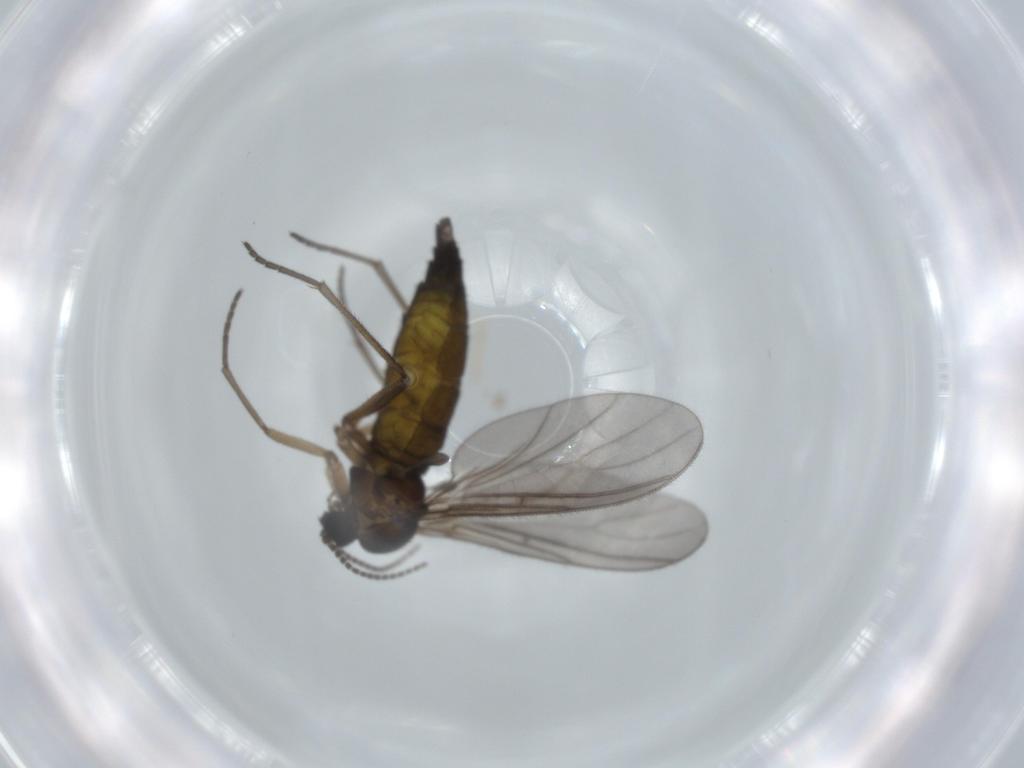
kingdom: Animalia
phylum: Arthropoda
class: Insecta
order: Diptera
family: Sciaridae
